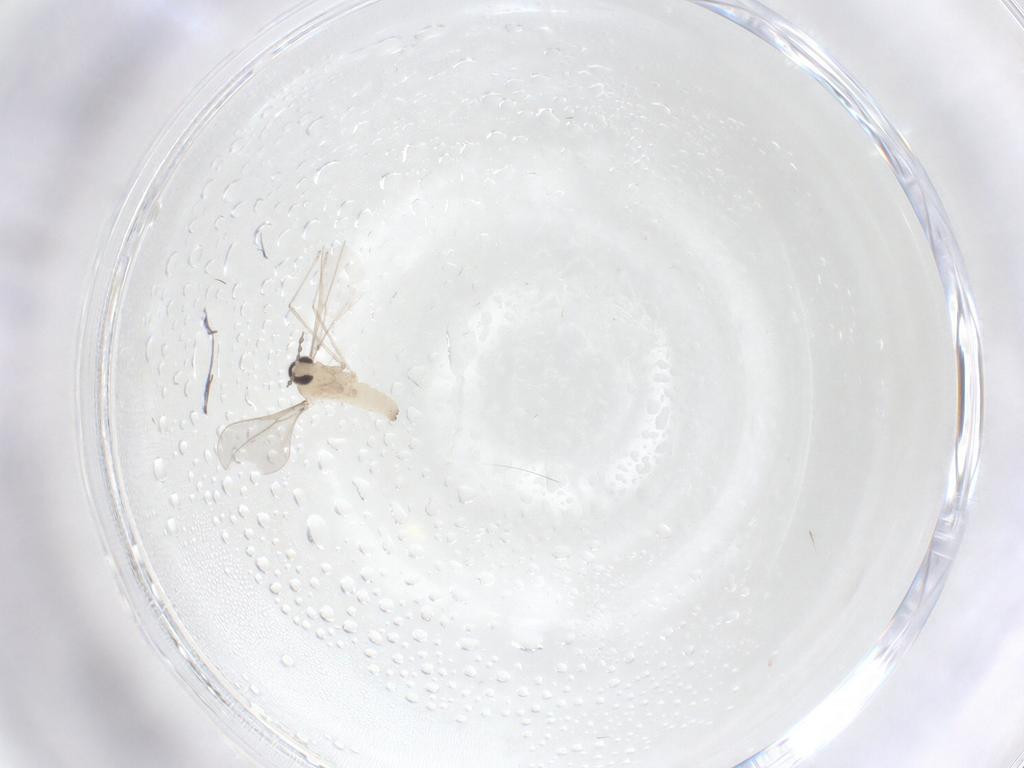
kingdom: Animalia
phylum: Arthropoda
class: Insecta
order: Diptera
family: Cecidomyiidae
